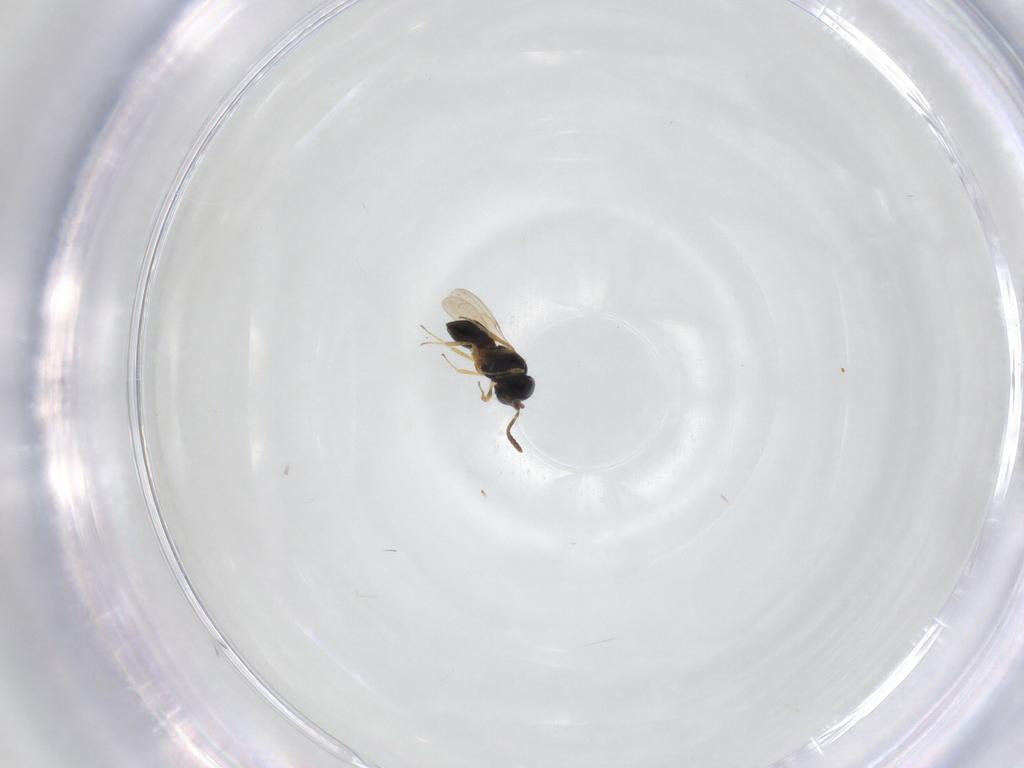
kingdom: Animalia
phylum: Arthropoda
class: Insecta
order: Hymenoptera
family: Scelionidae
